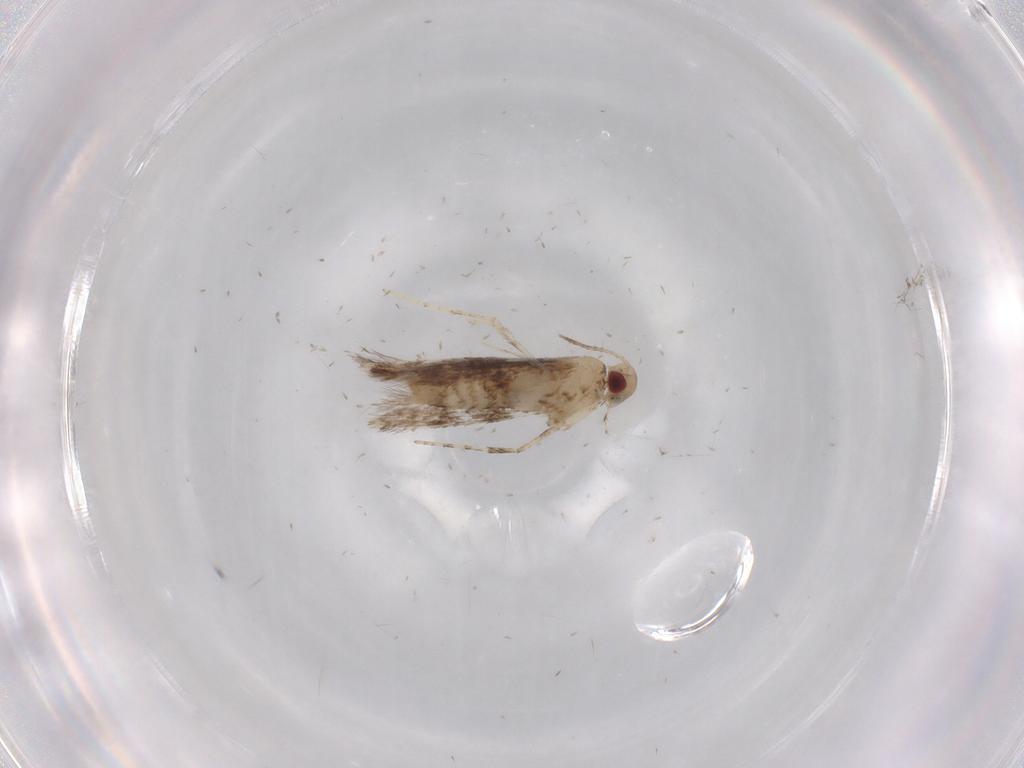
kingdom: Animalia
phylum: Arthropoda
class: Insecta
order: Lepidoptera
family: Gracillariidae
